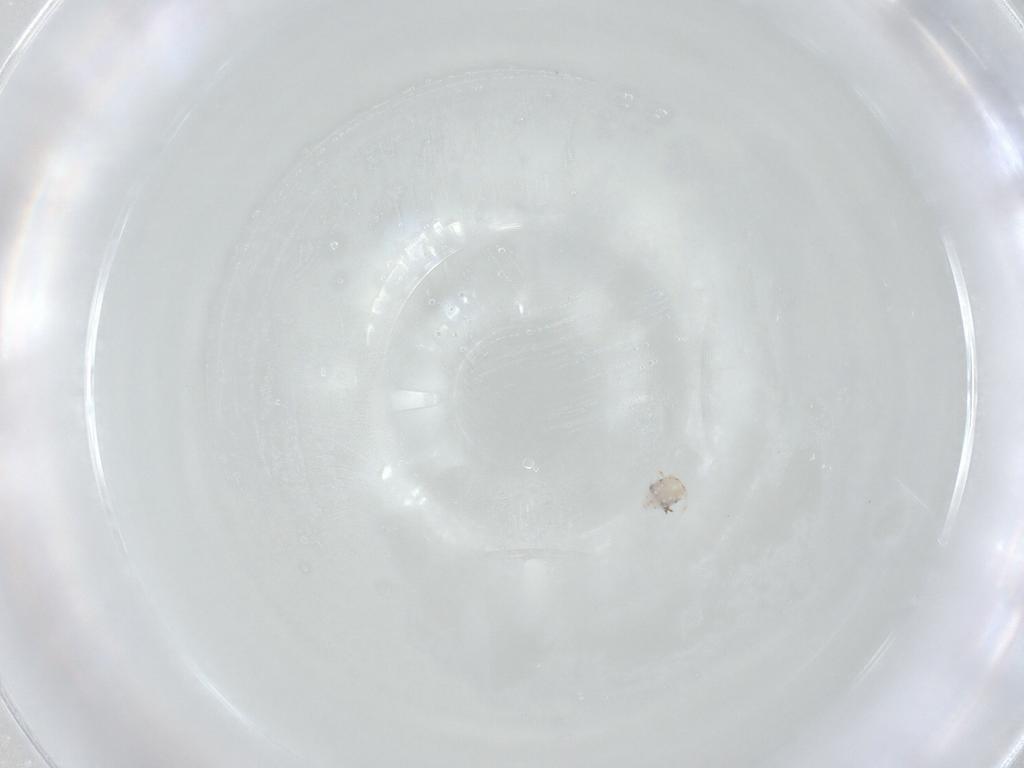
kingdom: Animalia
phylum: Arthropoda
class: Collembola
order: Symphypleona
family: Bourletiellidae
